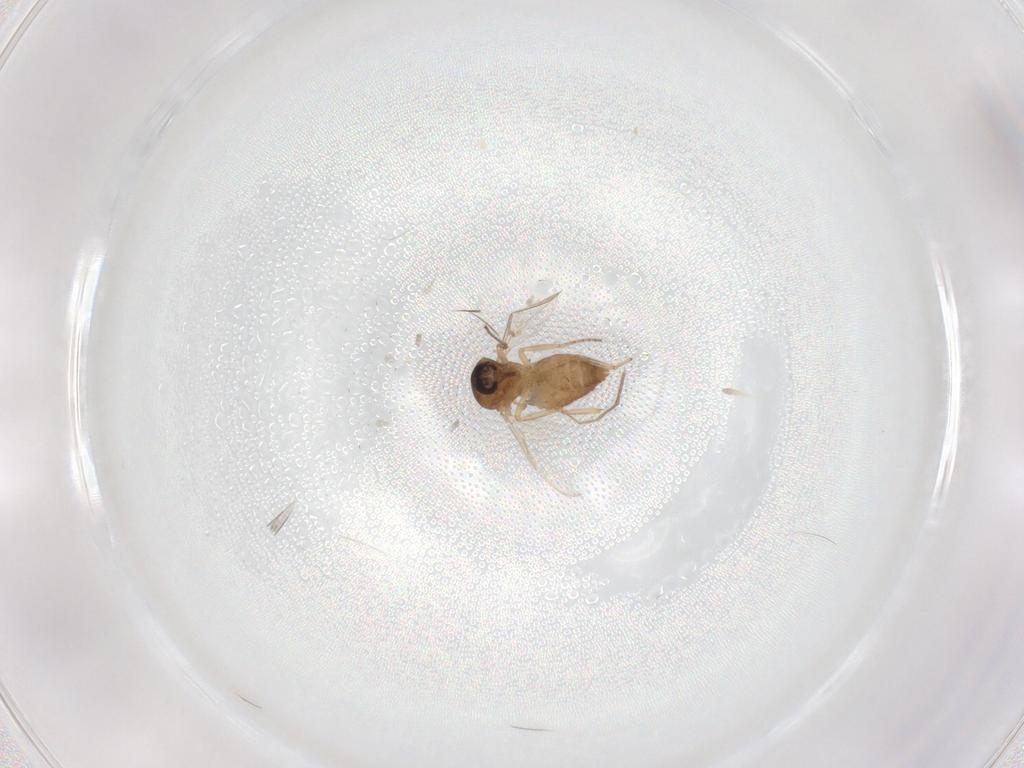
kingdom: Animalia
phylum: Arthropoda
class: Insecta
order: Diptera
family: Ceratopogonidae
